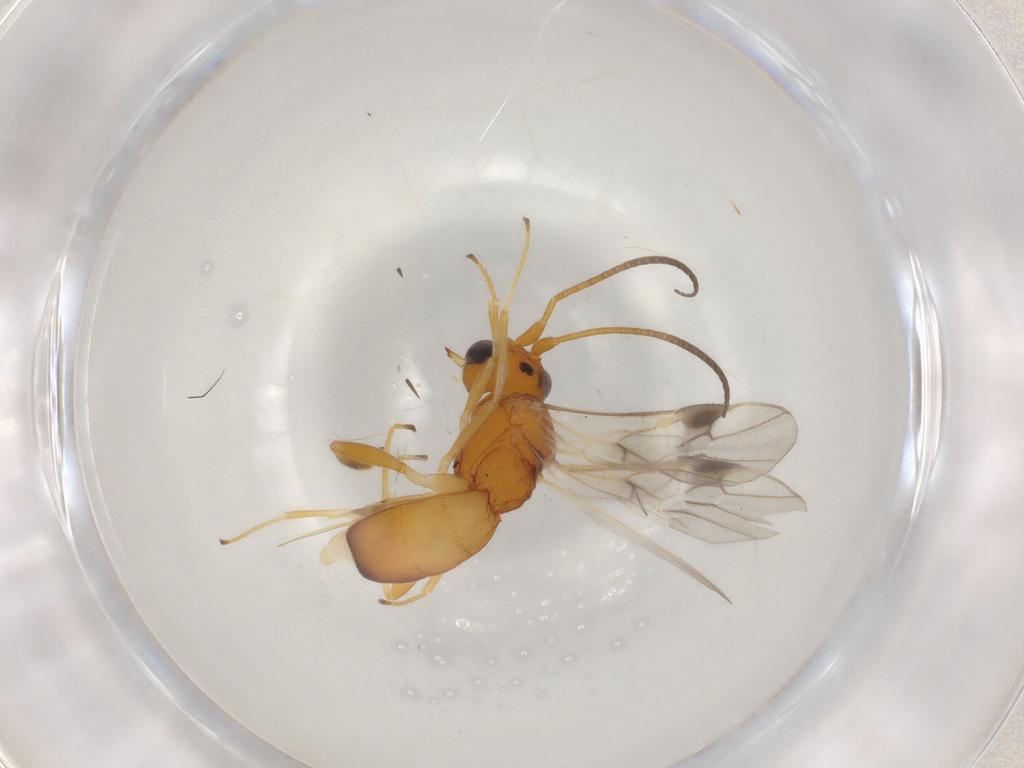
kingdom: Animalia
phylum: Arthropoda
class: Insecta
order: Hymenoptera
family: Braconidae
